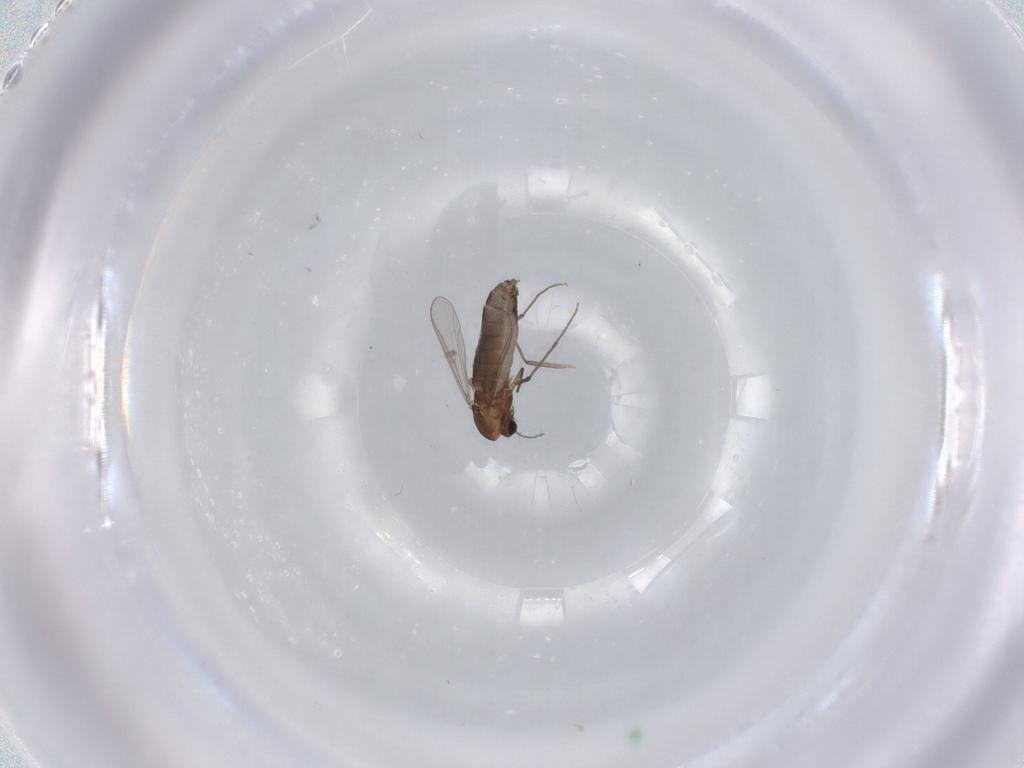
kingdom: Animalia
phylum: Arthropoda
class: Insecta
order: Diptera
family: Chironomidae
